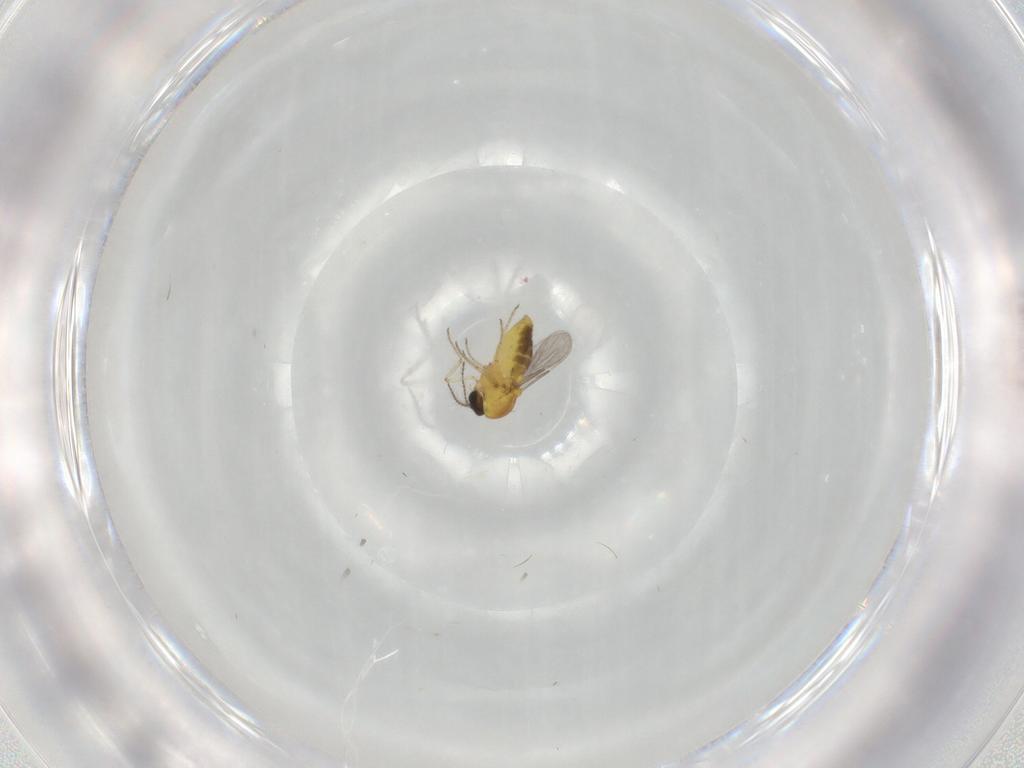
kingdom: Animalia
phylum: Arthropoda
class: Insecta
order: Diptera
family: Ceratopogonidae
